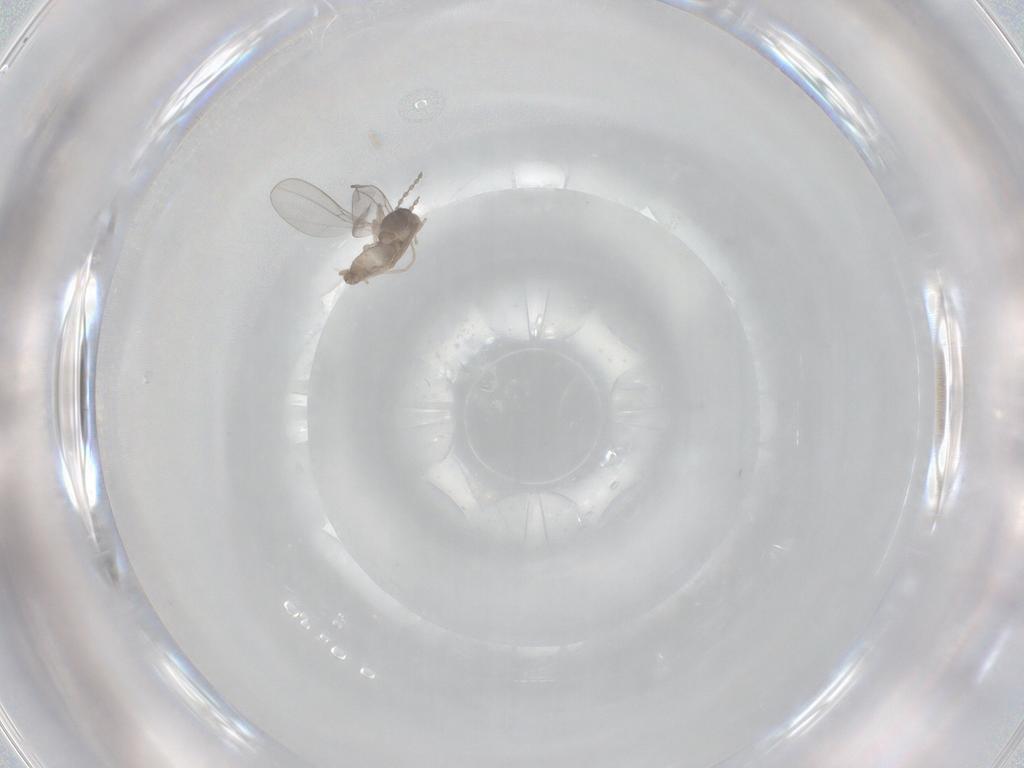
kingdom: Animalia
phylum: Arthropoda
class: Insecta
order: Diptera
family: Cecidomyiidae
